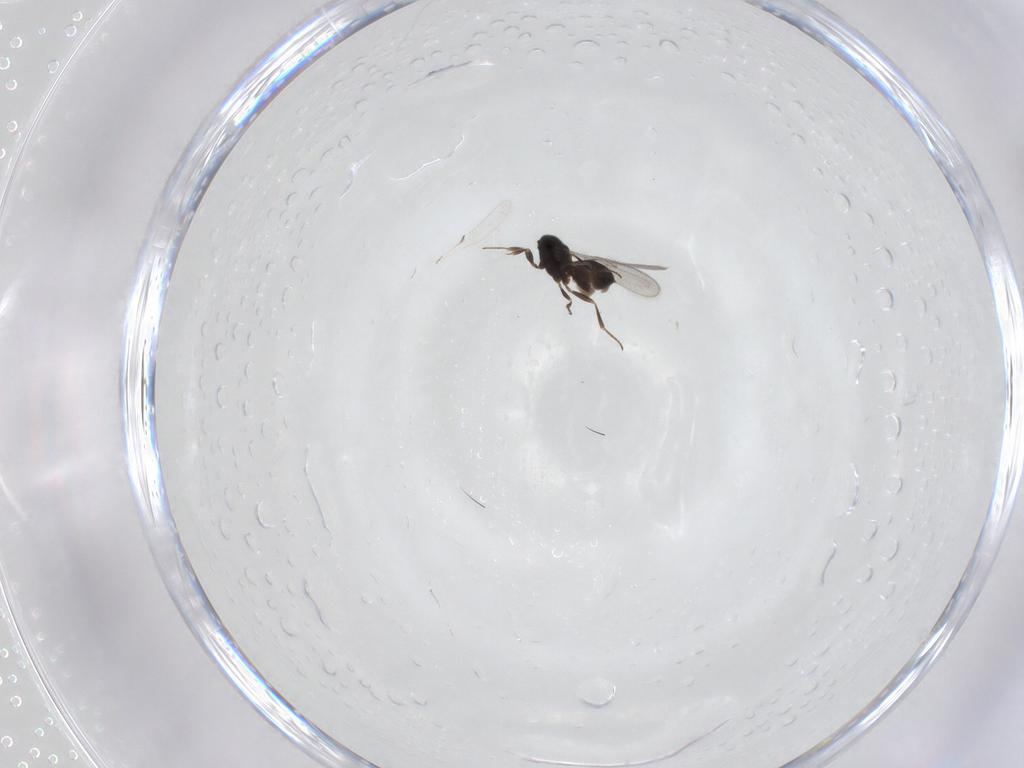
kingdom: Animalia
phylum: Arthropoda
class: Insecta
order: Hymenoptera
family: Scelionidae
